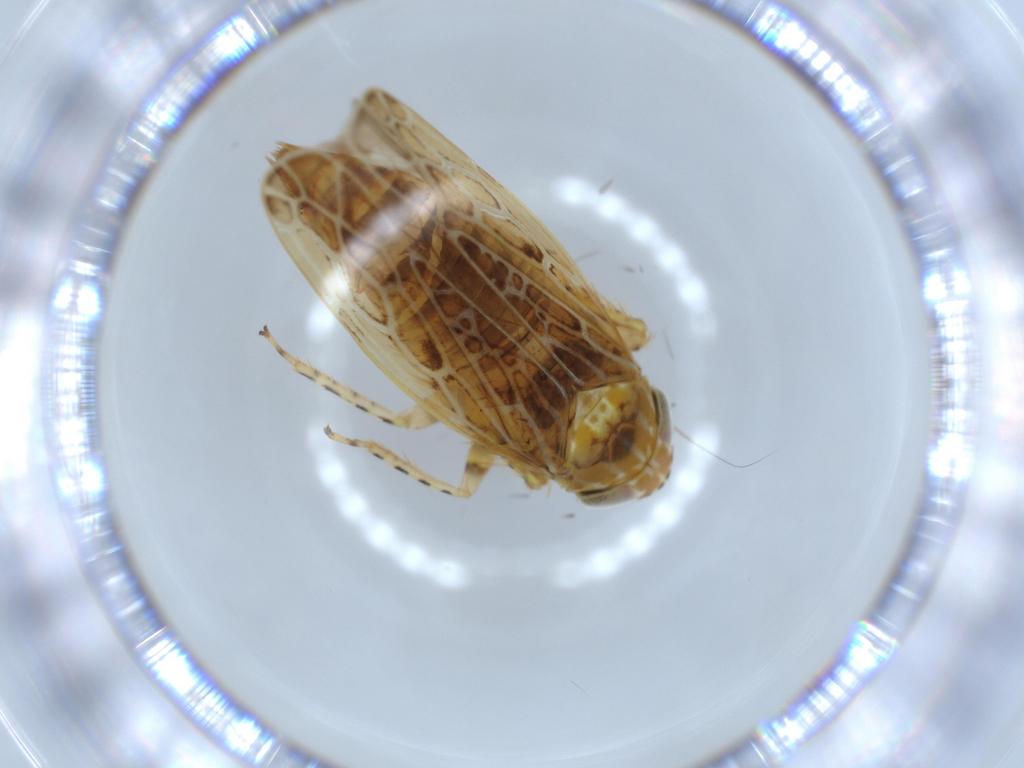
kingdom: Animalia
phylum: Arthropoda
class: Insecta
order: Hemiptera
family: Cicadellidae
